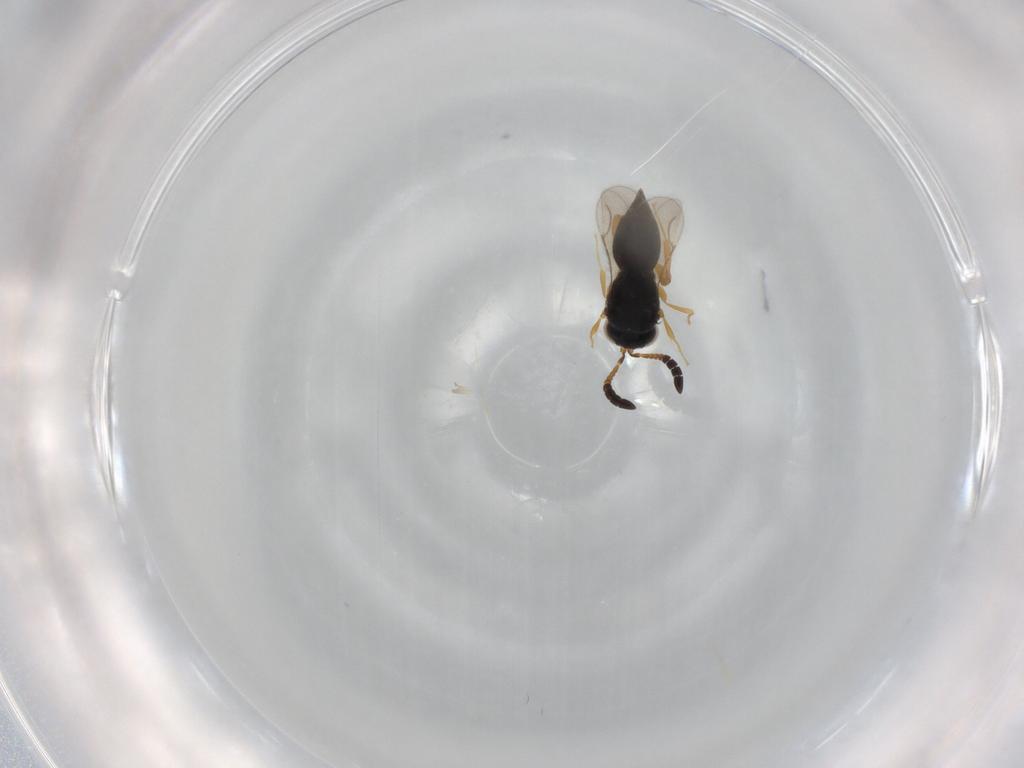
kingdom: Animalia
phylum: Arthropoda
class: Insecta
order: Hymenoptera
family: Ceraphronidae
